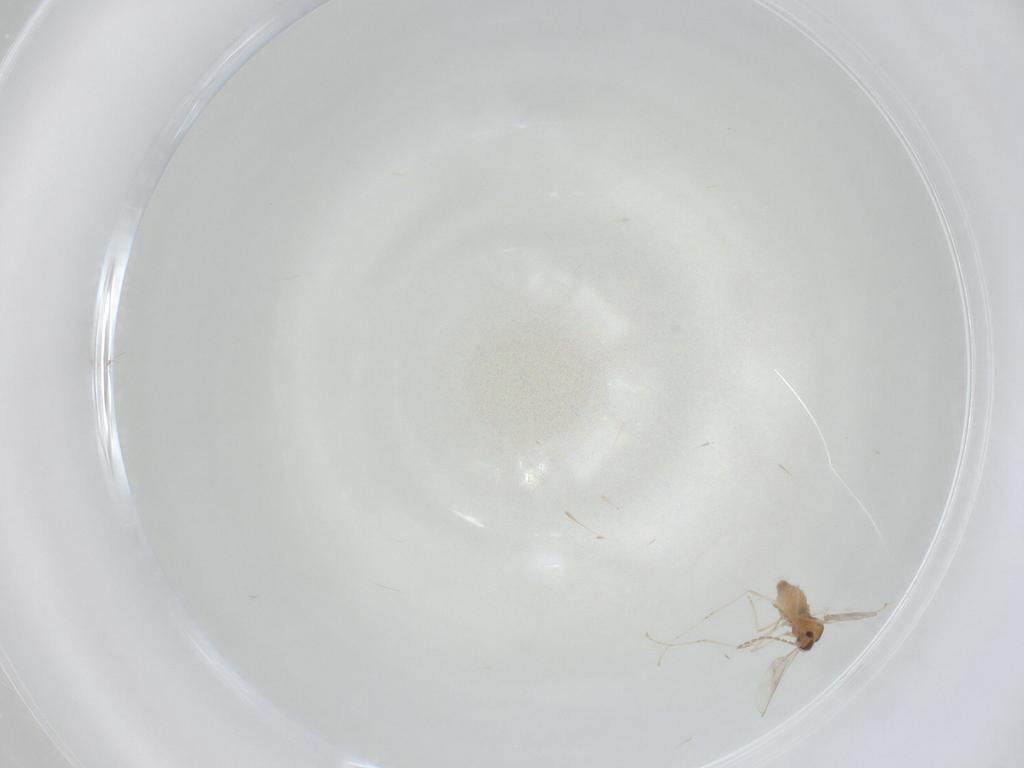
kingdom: Animalia
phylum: Arthropoda
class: Insecta
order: Diptera
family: Cecidomyiidae
